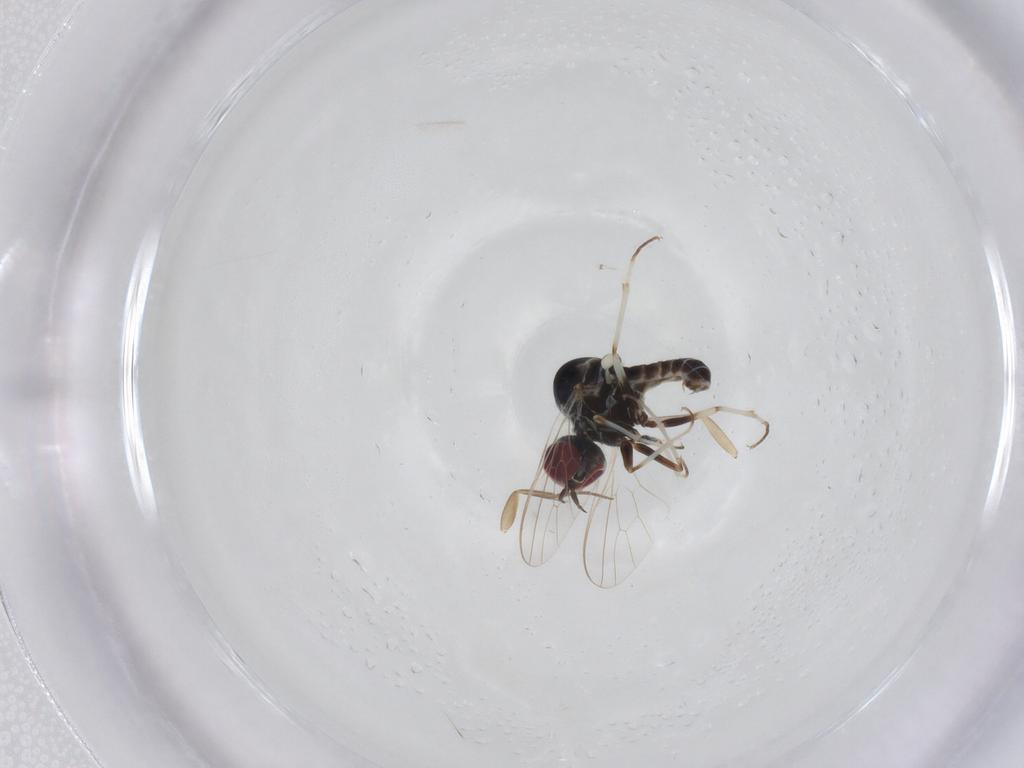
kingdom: Animalia
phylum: Arthropoda
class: Insecta
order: Diptera
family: Mythicomyiidae
